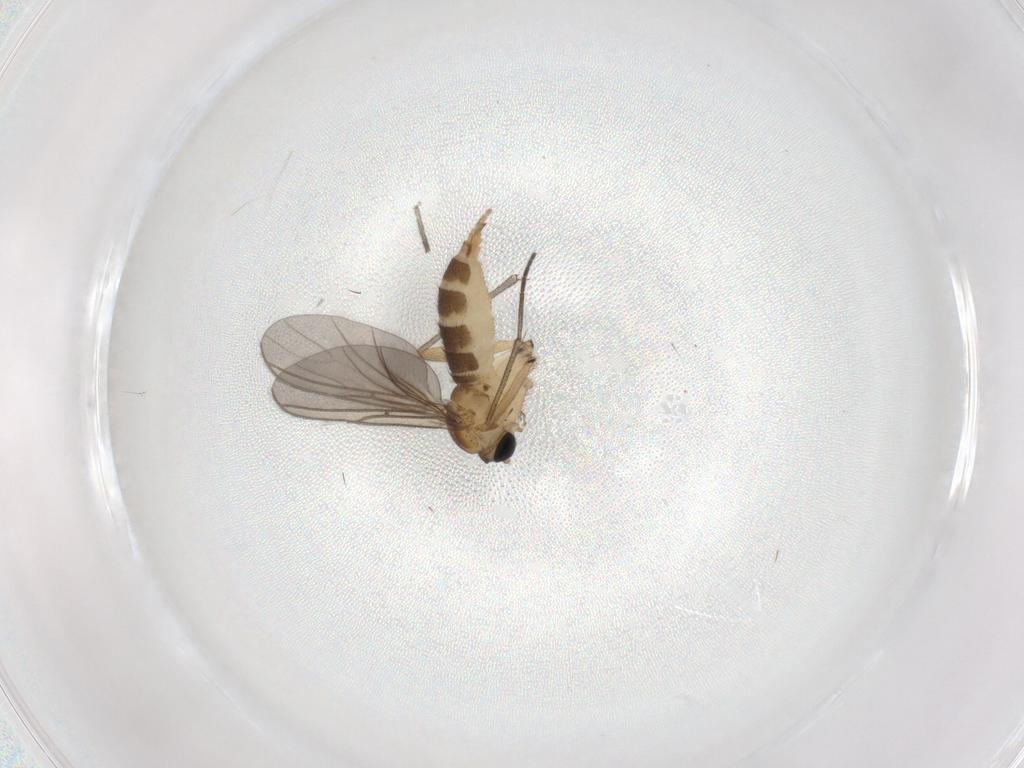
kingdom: Animalia
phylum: Arthropoda
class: Insecta
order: Diptera
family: Sciaridae
